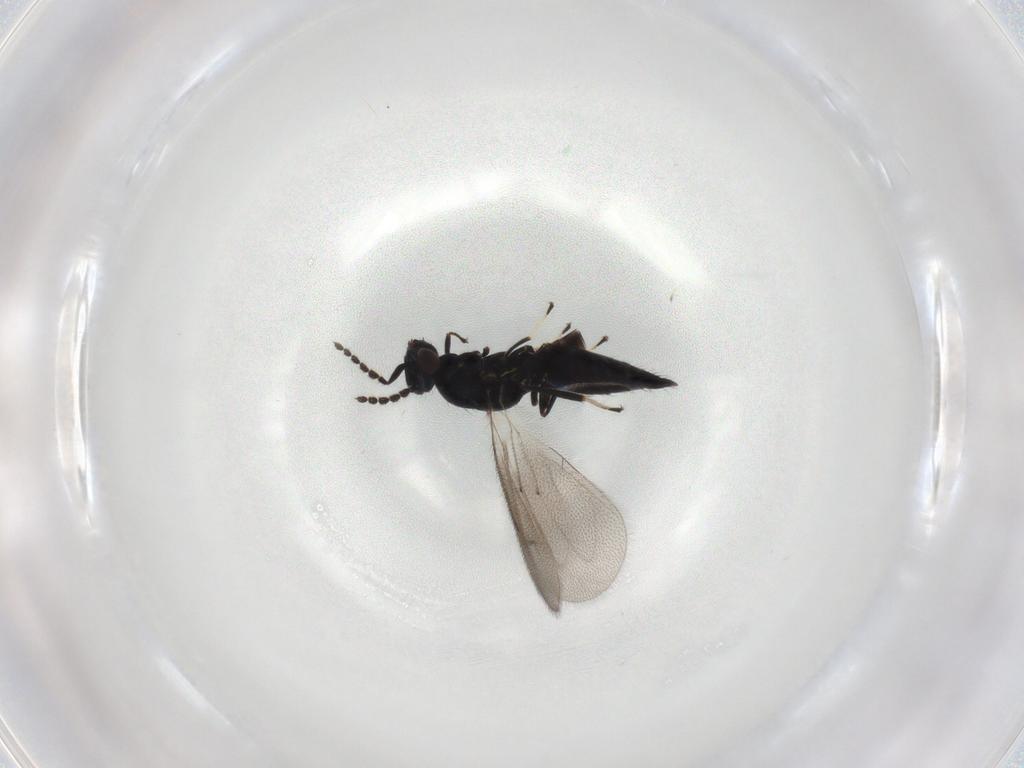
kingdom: Animalia
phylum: Arthropoda
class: Insecta
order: Hymenoptera
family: Eulophidae
